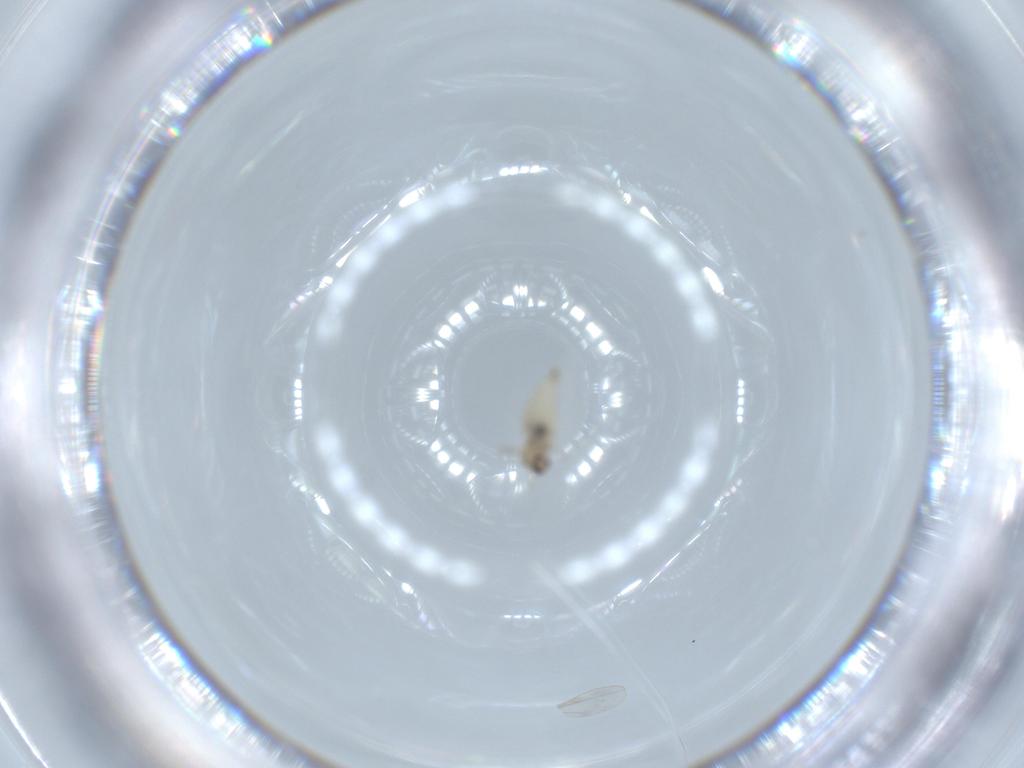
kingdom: Animalia
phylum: Arthropoda
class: Insecta
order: Diptera
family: Cecidomyiidae
